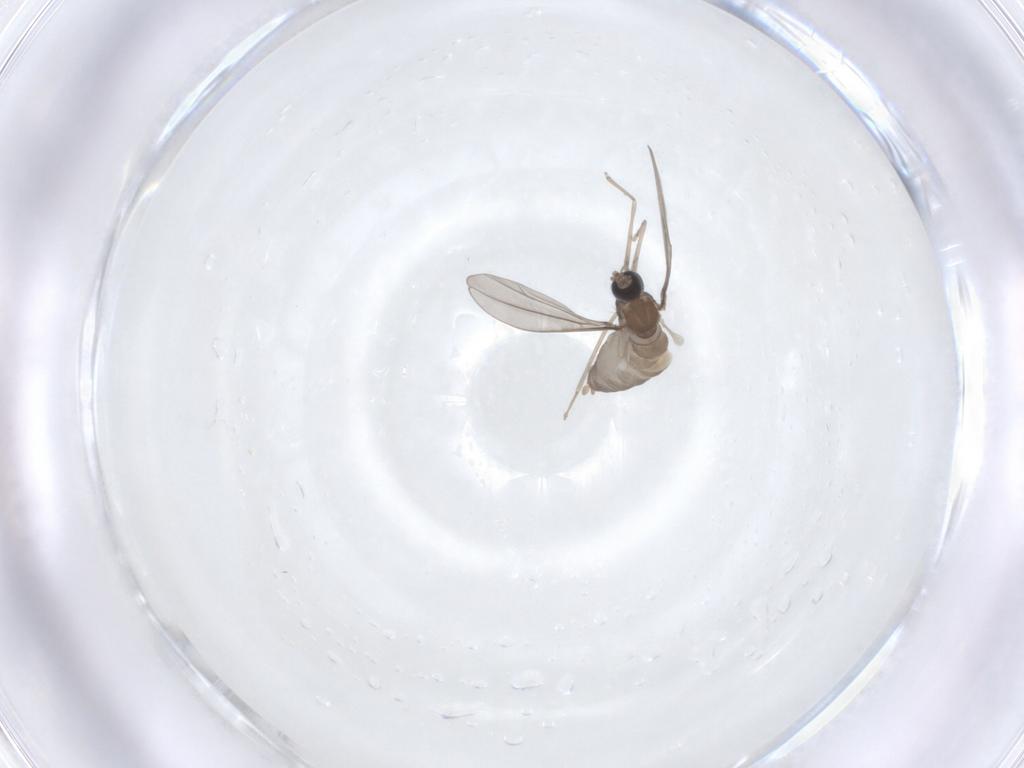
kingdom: Animalia
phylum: Arthropoda
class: Insecta
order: Diptera
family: Cecidomyiidae
